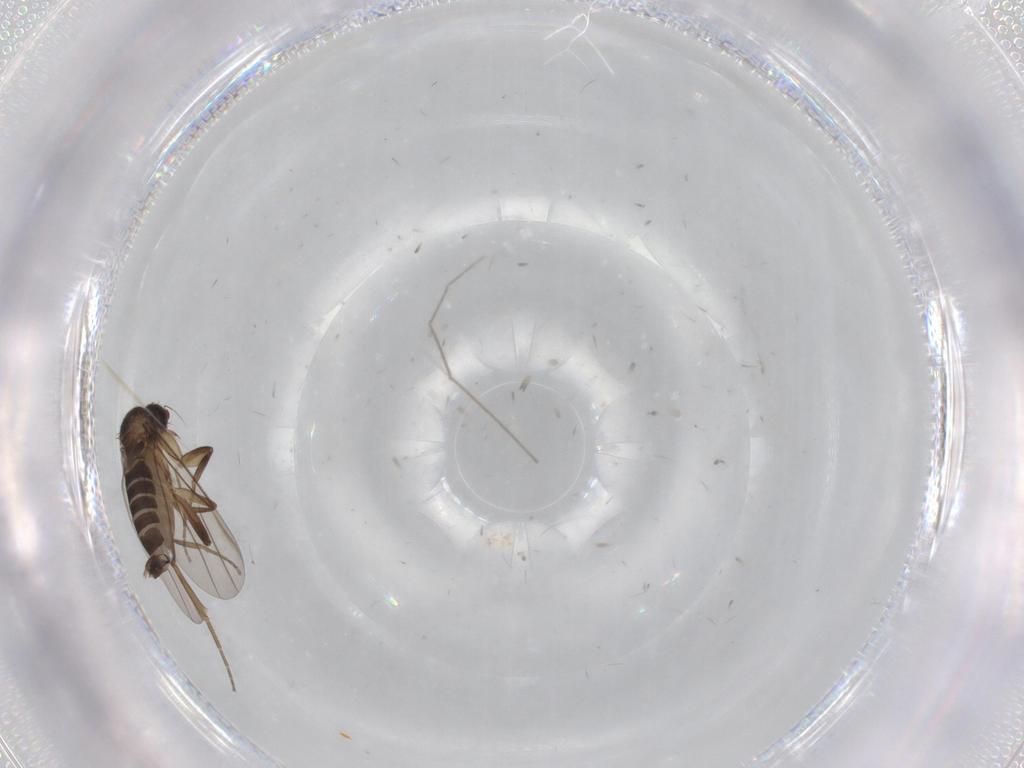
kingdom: Animalia
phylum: Arthropoda
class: Insecta
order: Diptera
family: Phoridae
